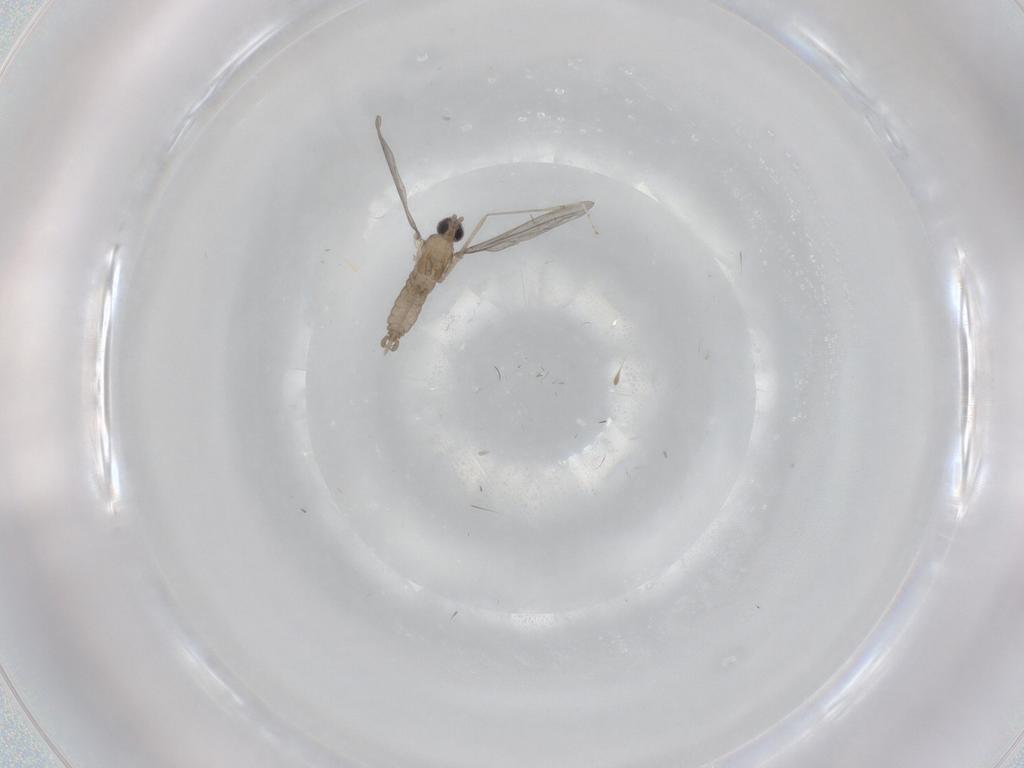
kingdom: Animalia
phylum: Arthropoda
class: Insecta
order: Diptera
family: Cecidomyiidae
